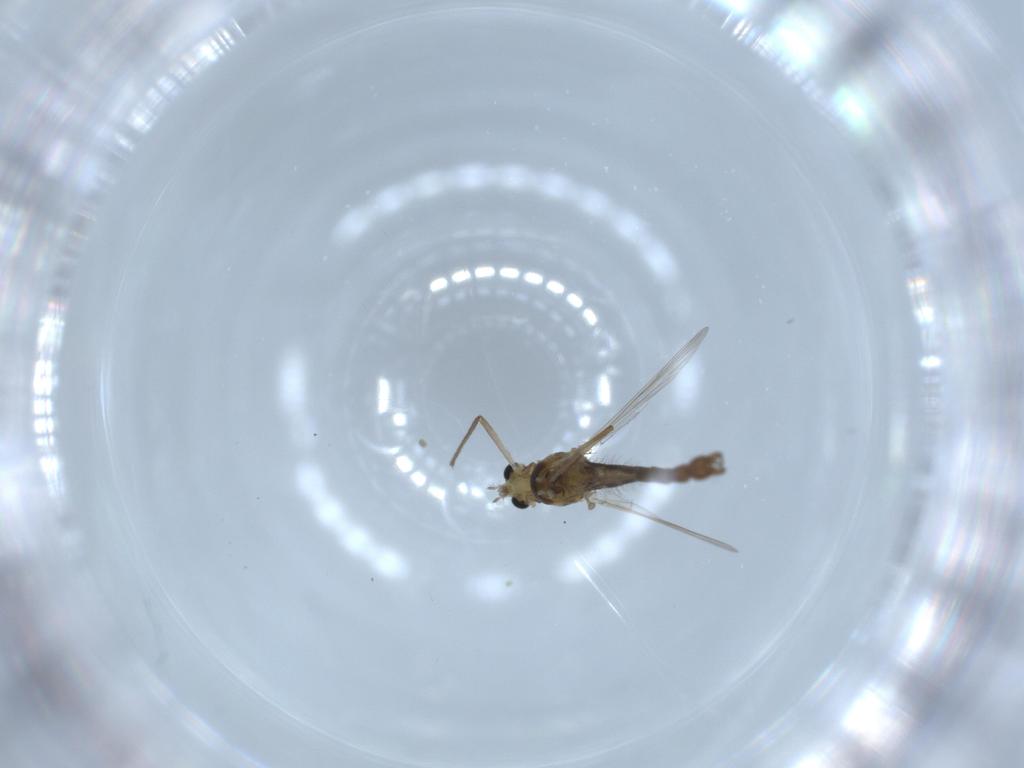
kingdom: Animalia
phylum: Arthropoda
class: Insecta
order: Diptera
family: Chironomidae
